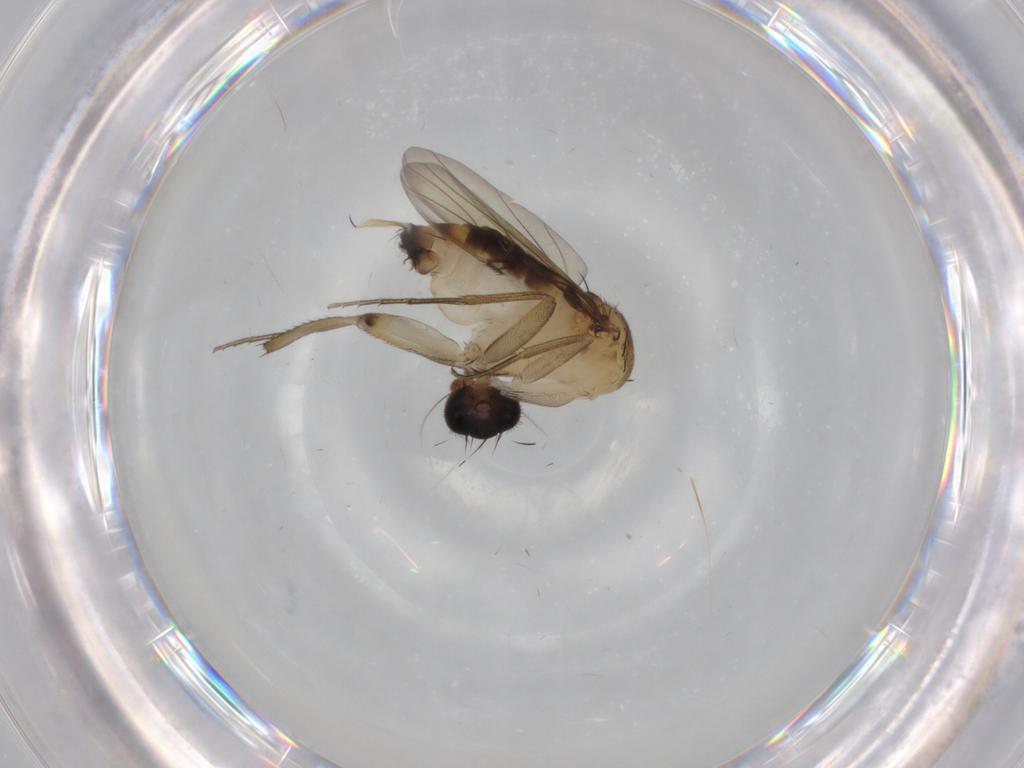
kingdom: Animalia
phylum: Arthropoda
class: Insecta
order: Diptera
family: Phoridae
